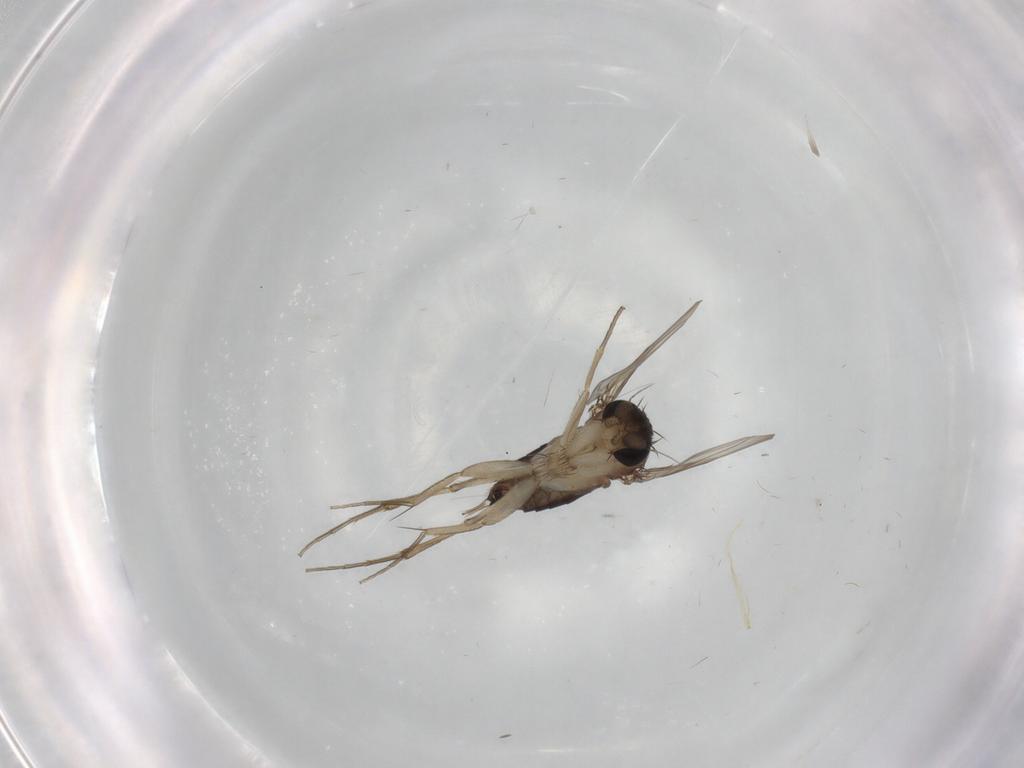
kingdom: Animalia
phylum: Arthropoda
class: Insecta
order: Diptera
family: Phoridae
